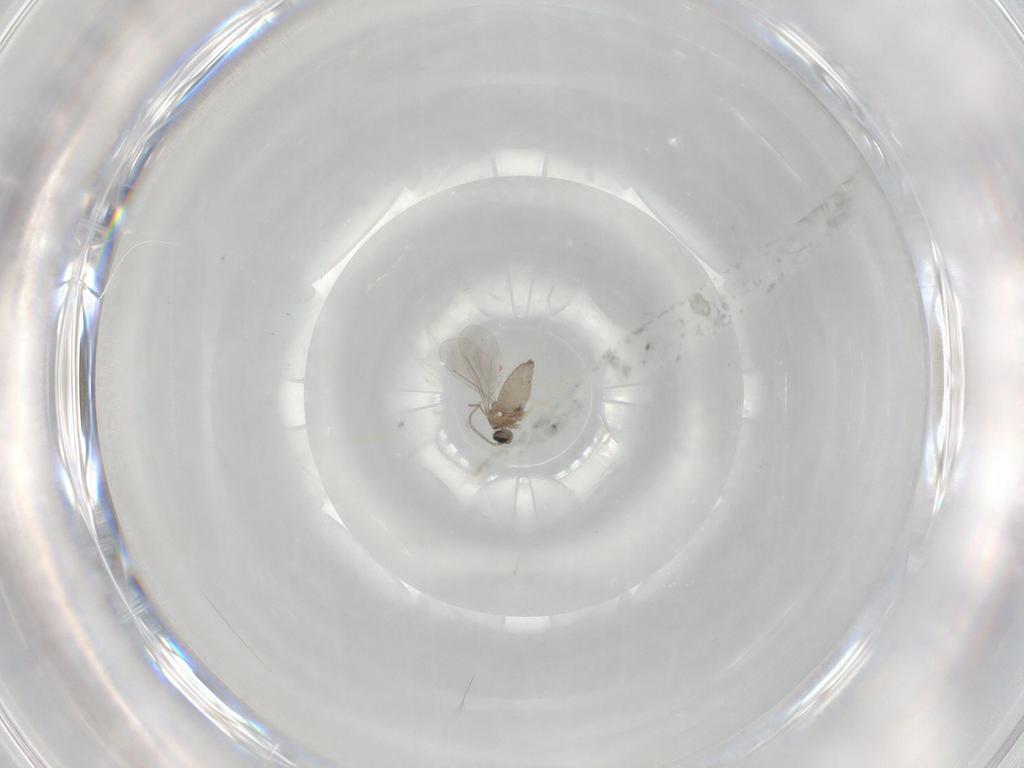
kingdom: Animalia
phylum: Arthropoda
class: Insecta
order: Diptera
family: Cecidomyiidae
